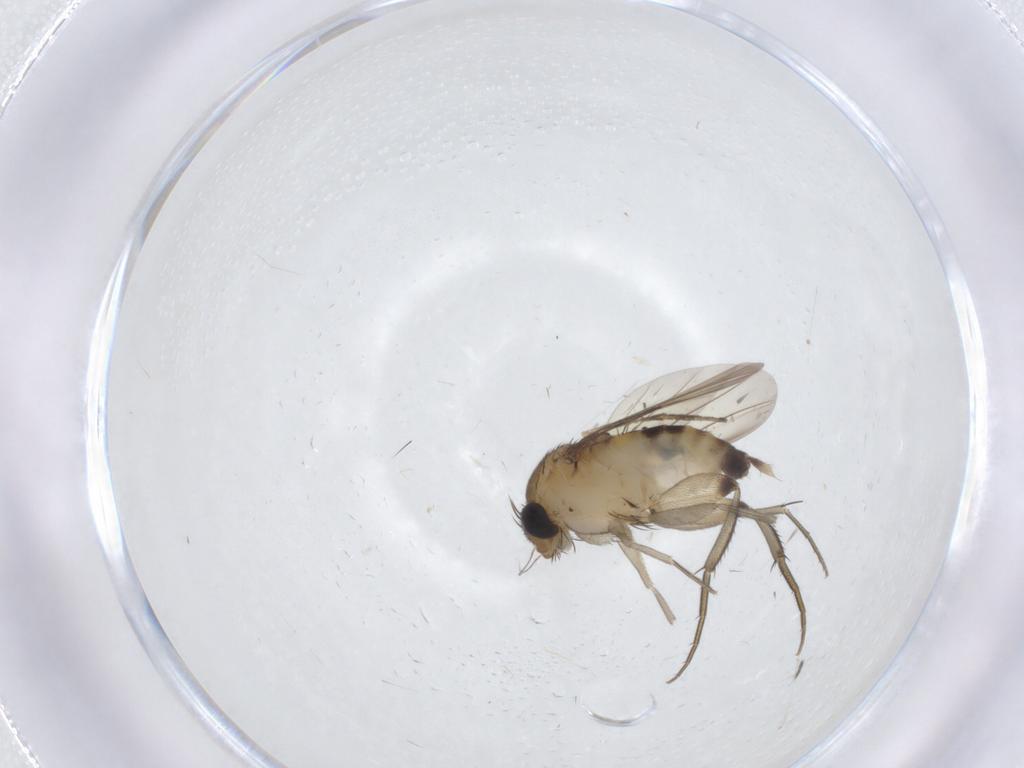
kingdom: Animalia
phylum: Arthropoda
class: Insecta
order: Diptera
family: Phoridae
